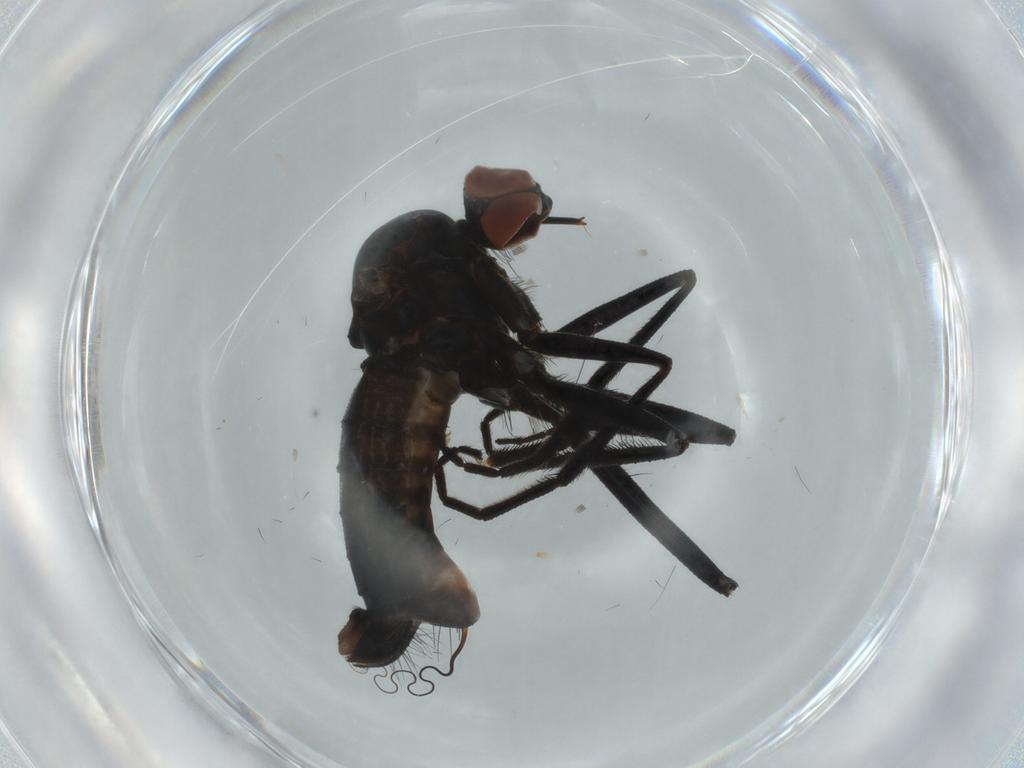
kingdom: Animalia
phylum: Arthropoda
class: Insecta
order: Diptera
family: Empididae
